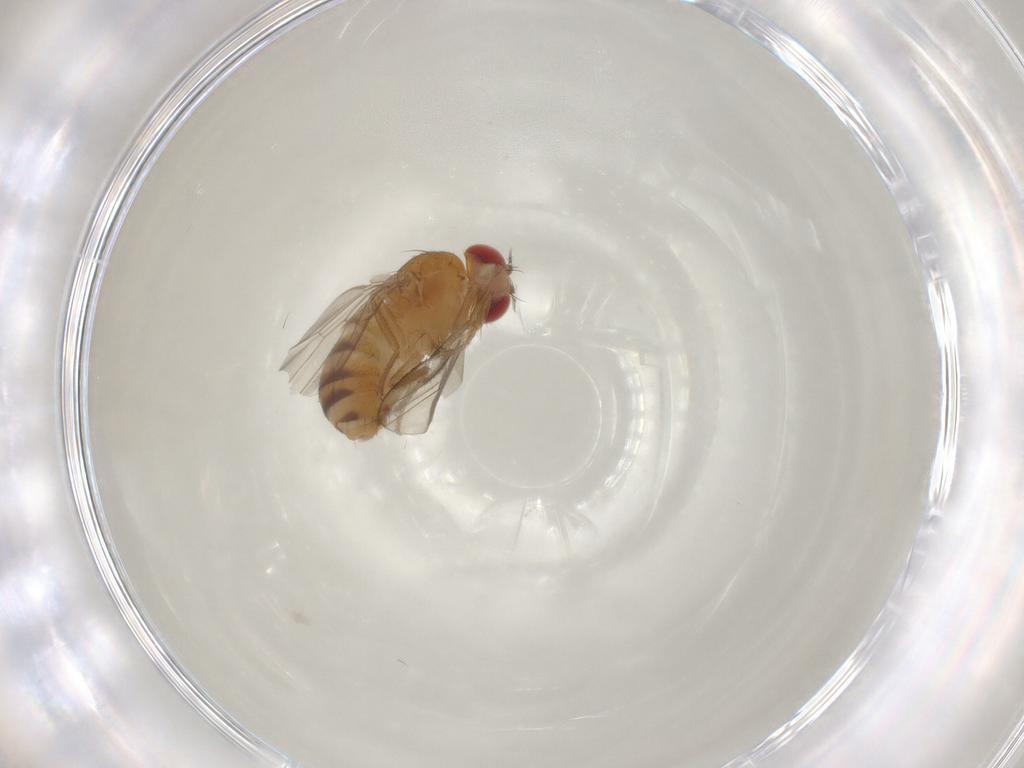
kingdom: Animalia
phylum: Arthropoda
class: Insecta
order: Diptera
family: Drosophilidae
